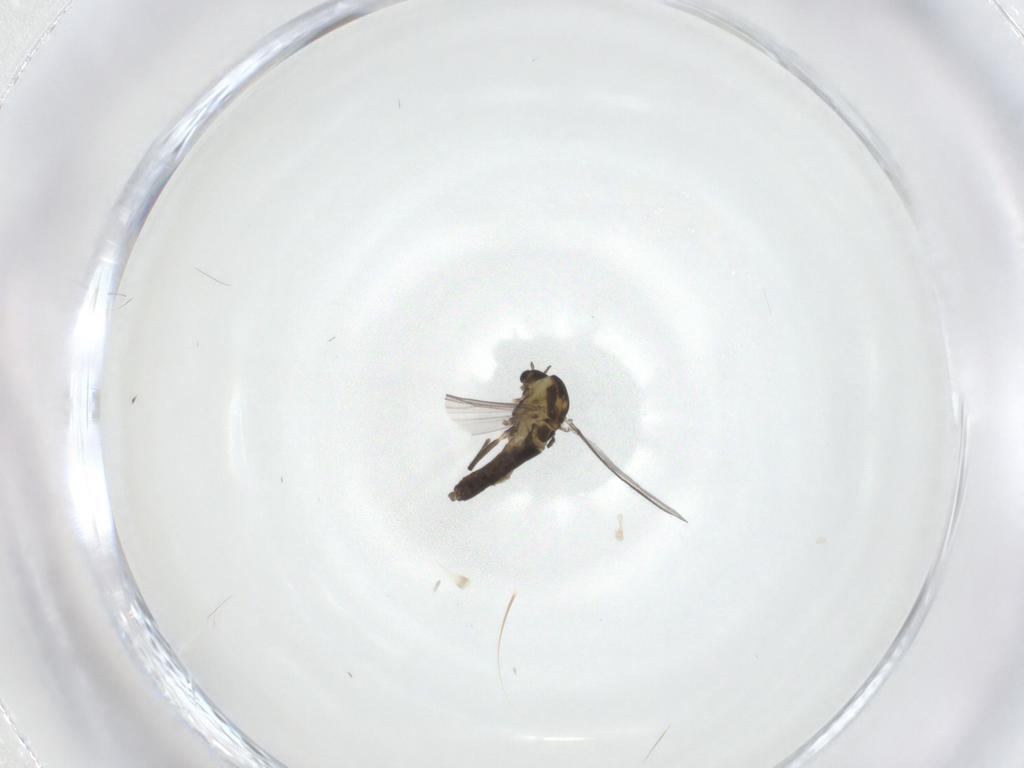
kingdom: Animalia
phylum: Arthropoda
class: Insecta
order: Diptera
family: Chironomidae
